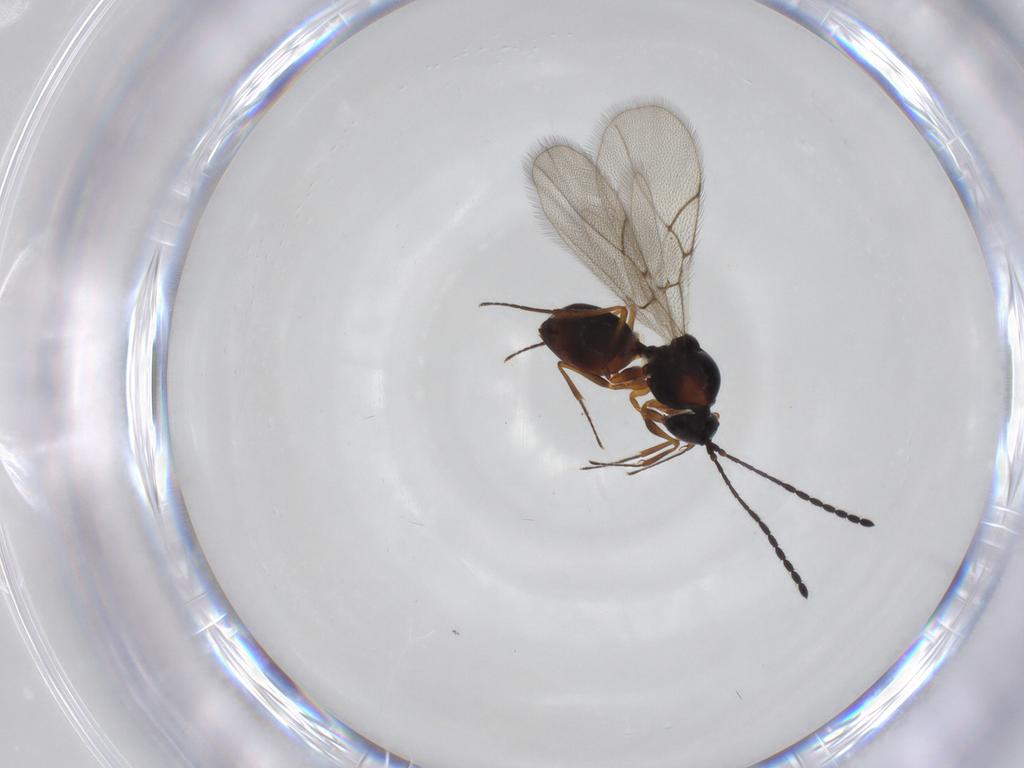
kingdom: Animalia
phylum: Arthropoda
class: Insecta
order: Hymenoptera
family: Figitidae
